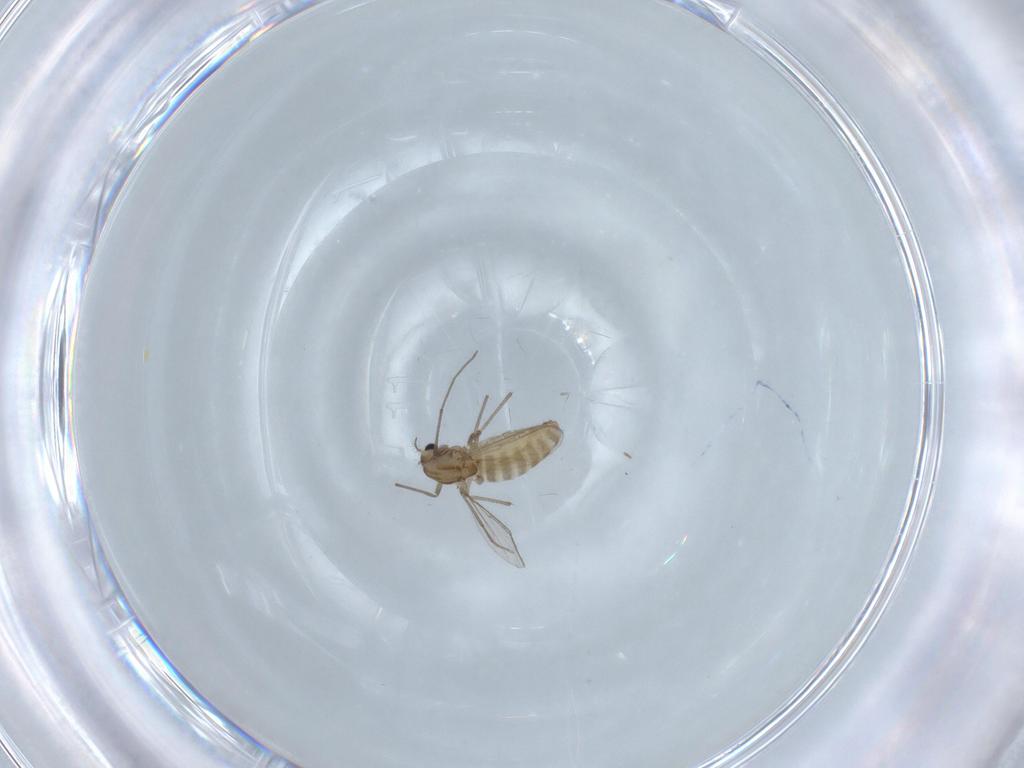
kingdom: Animalia
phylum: Arthropoda
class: Insecta
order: Diptera
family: Chironomidae
